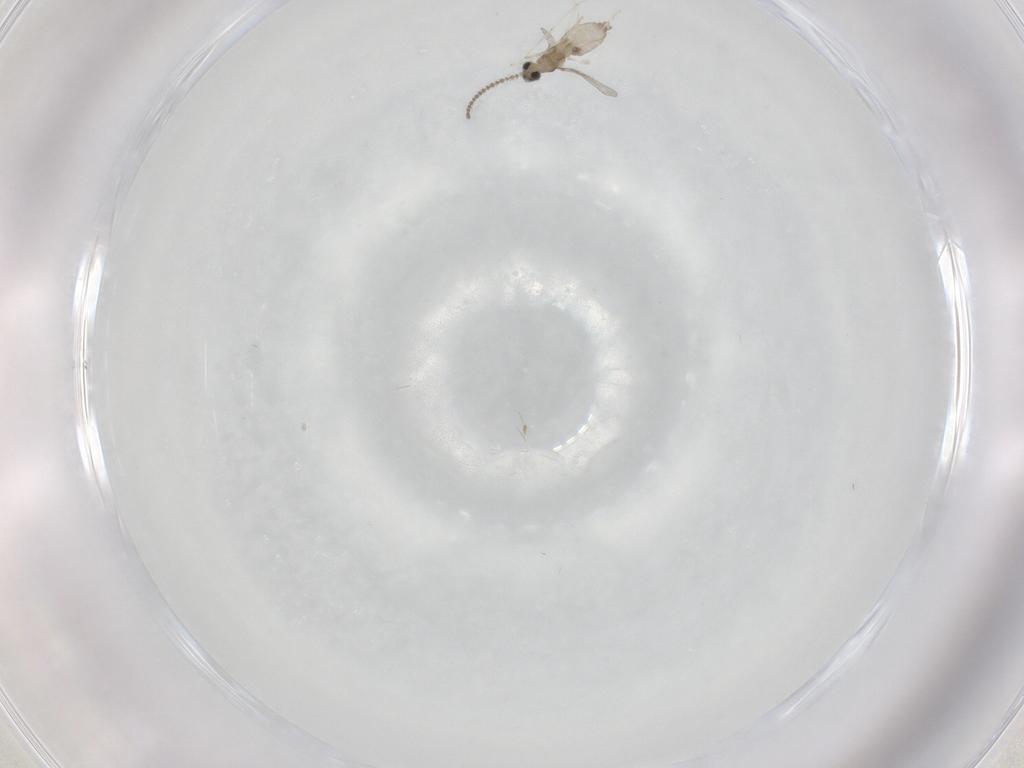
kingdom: Animalia
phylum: Arthropoda
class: Insecta
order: Diptera
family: Cecidomyiidae
